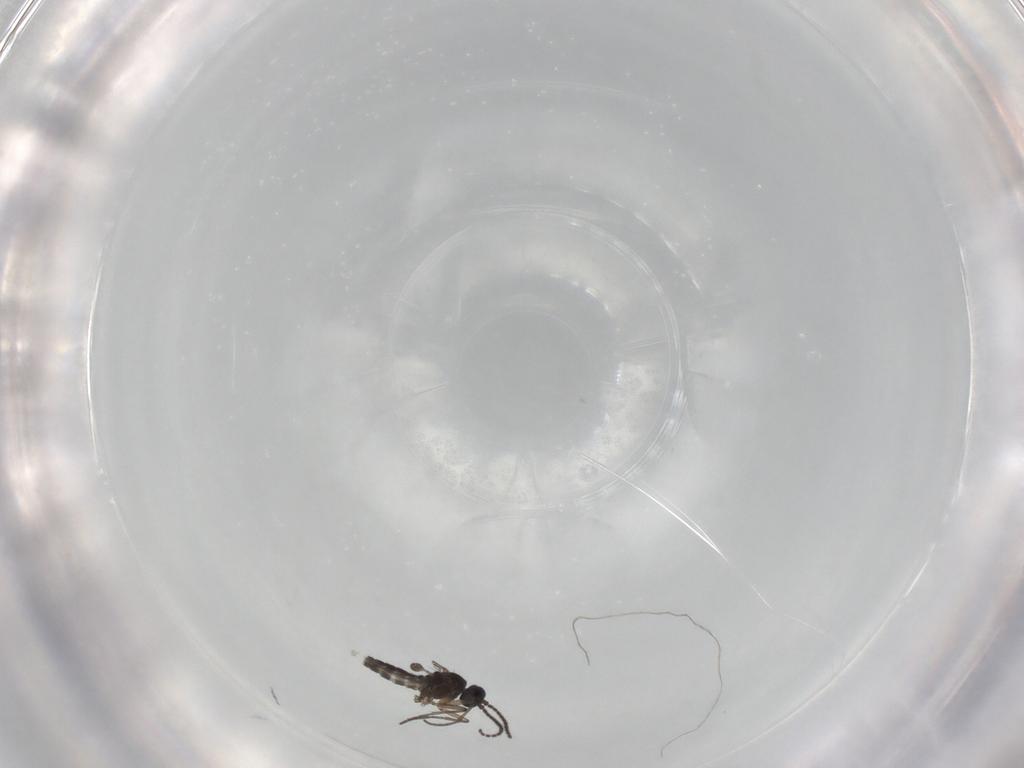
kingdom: Animalia
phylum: Arthropoda
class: Insecta
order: Diptera
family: Sciaridae
